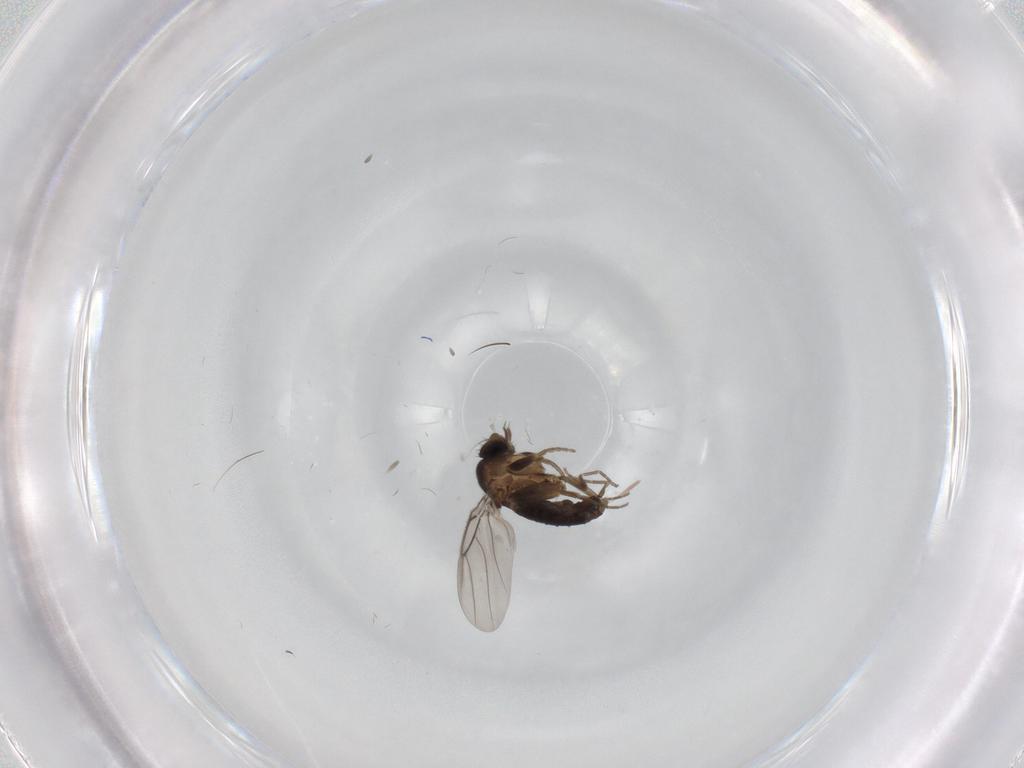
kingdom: Animalia
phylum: Arthropoda
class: Insecta
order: Diptera
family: Phoridae
